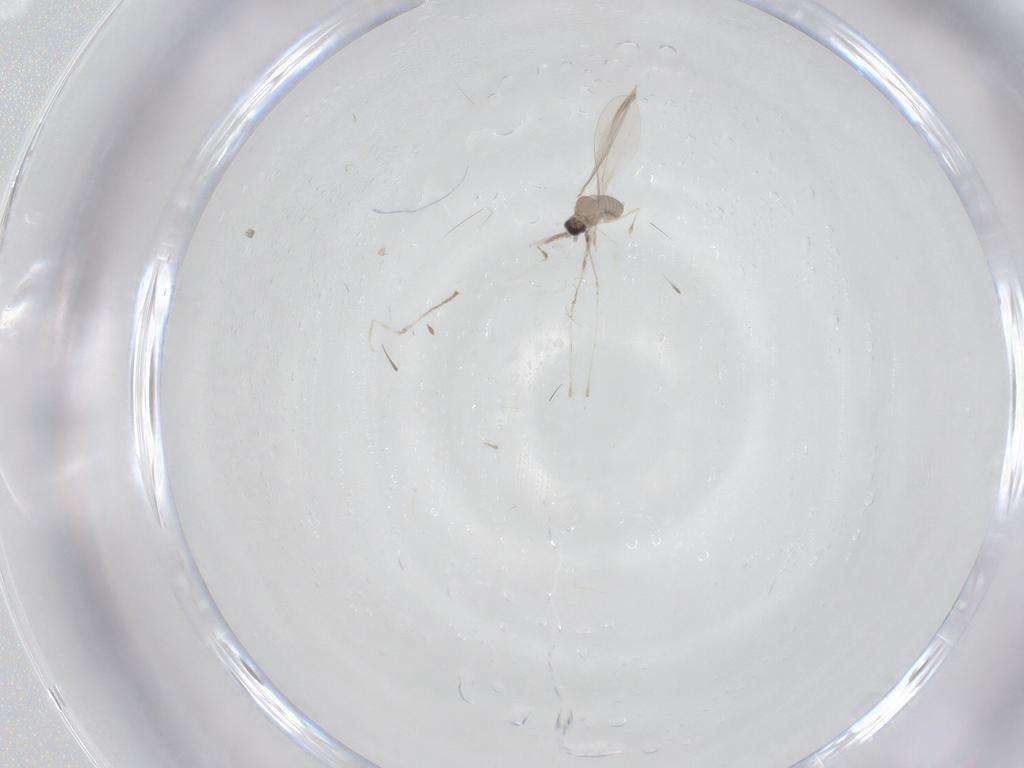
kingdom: Animalia
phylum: Arthropoda
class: Insecta
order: Diptera
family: Cecidomyiidae
